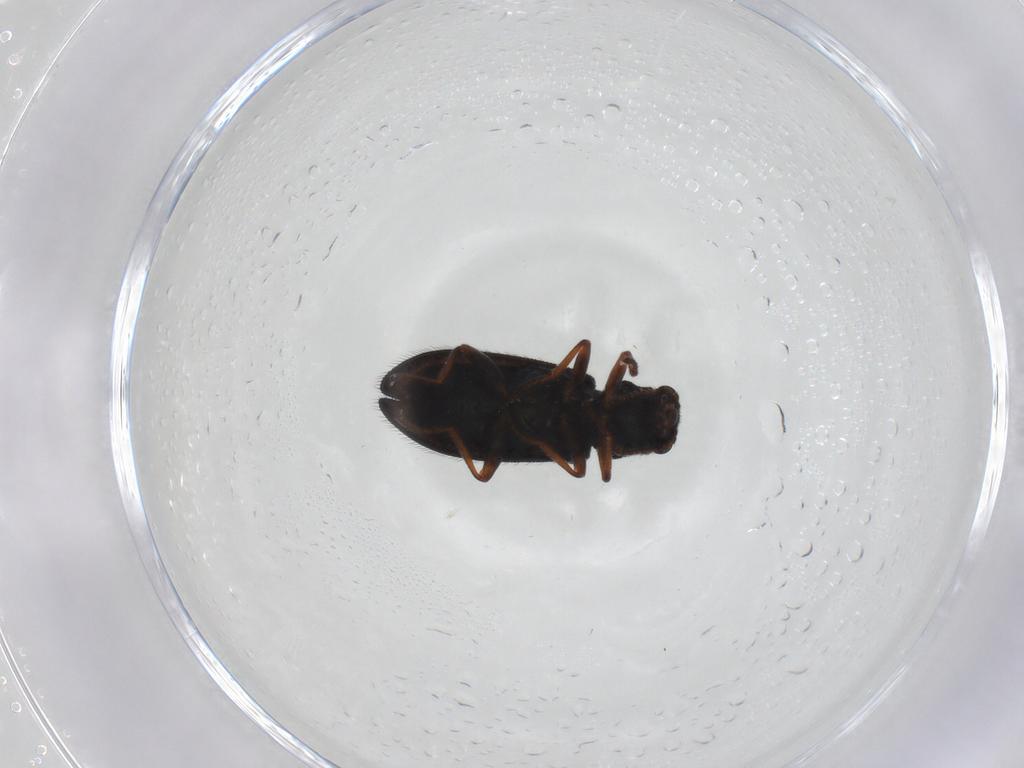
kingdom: Animalia
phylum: Arthropoda
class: Insecta
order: Coleoptera
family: Melyridae
